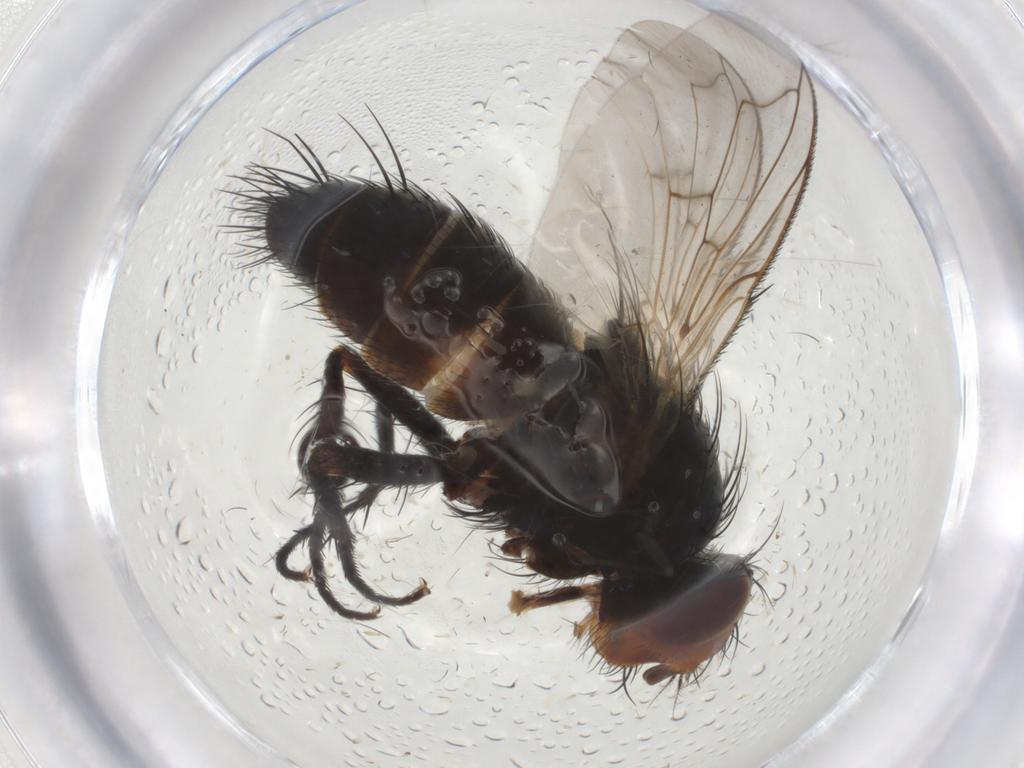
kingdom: Animalia
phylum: Arthropoda
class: Insecta
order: Diptera
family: Tachinidae
